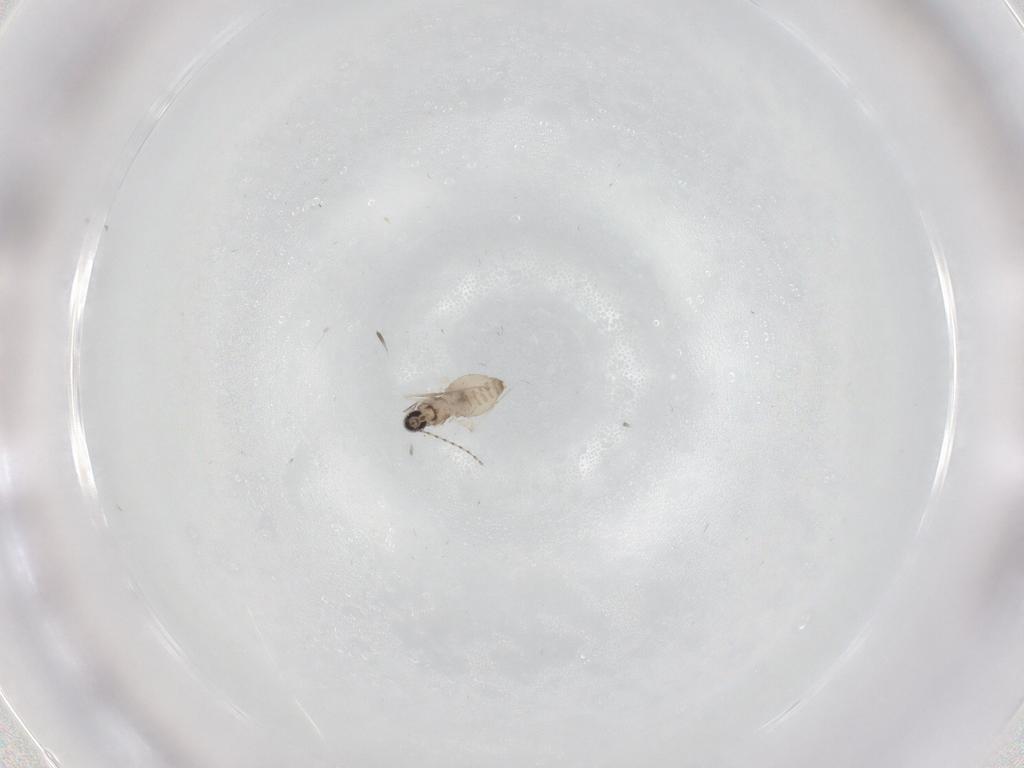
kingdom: Animalia
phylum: Arthropoda
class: Insecta
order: Diptera
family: Cecidomyiidae
